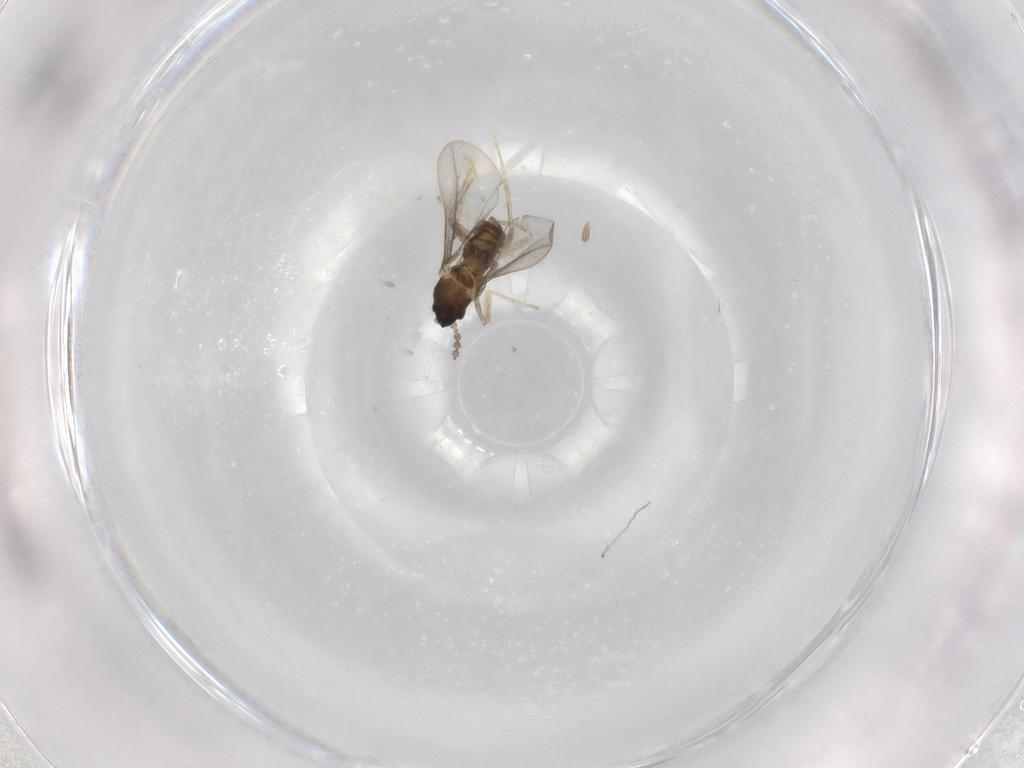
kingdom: Animalia
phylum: Arthropoda
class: Insecta
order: Diptera
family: Cecidomyiidae
